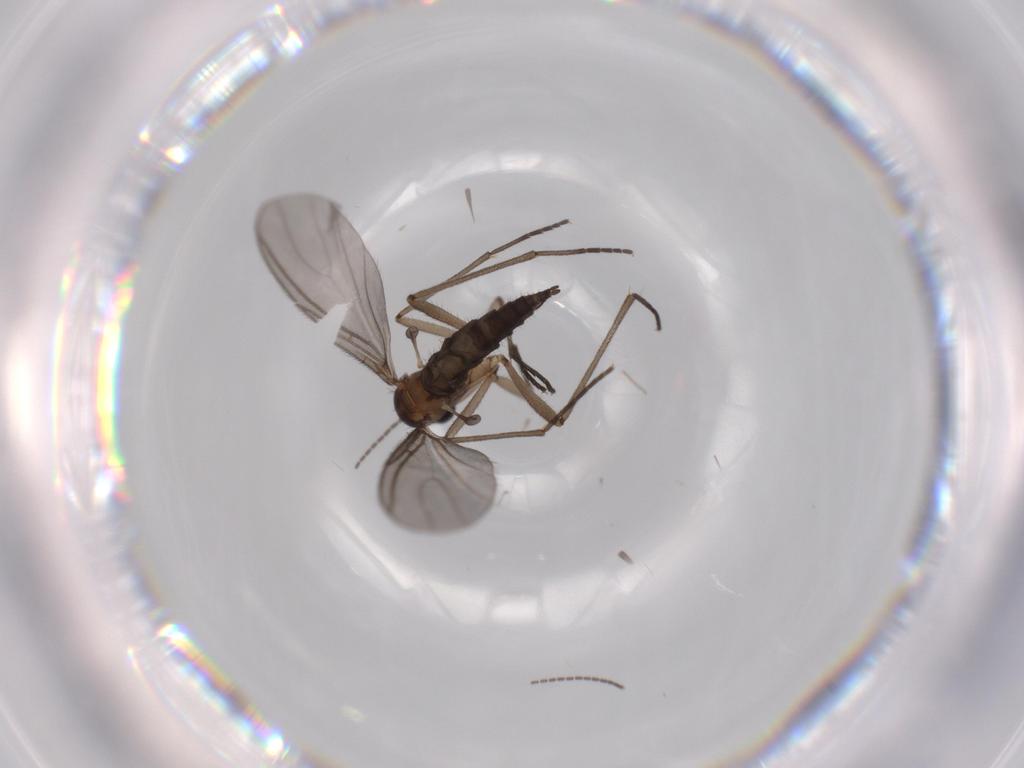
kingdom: Animalia
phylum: Arthropoda
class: Insecta
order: Diptera
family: Sciaridae
